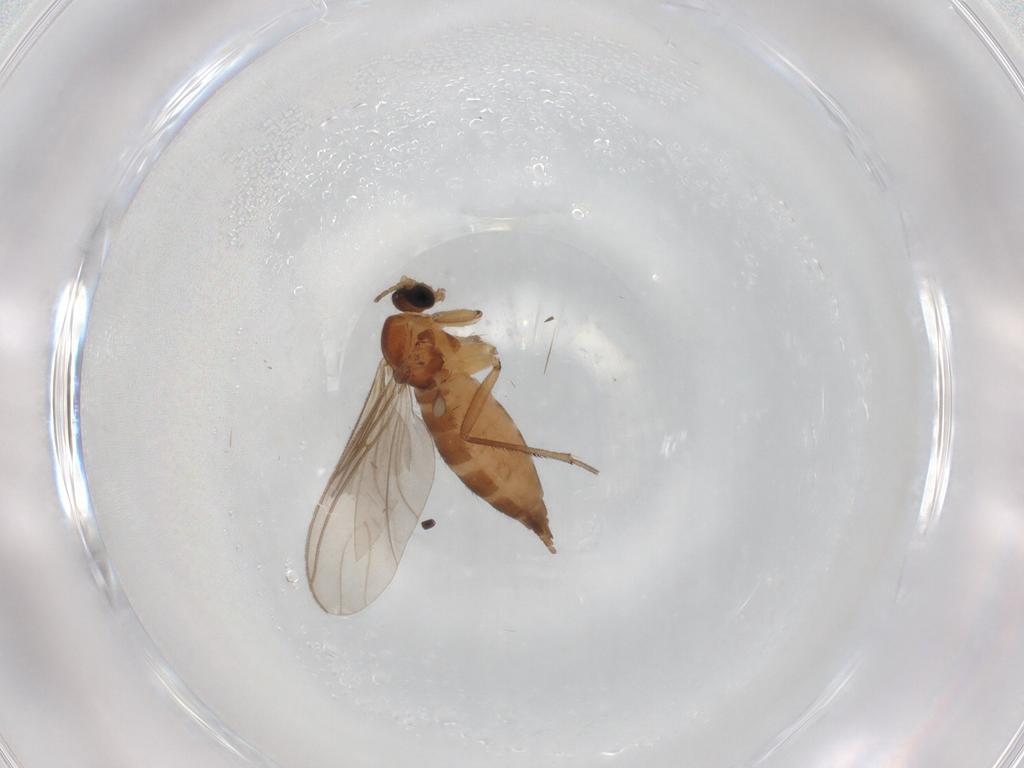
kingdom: Animalia
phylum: Arthropoda
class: Insecta
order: Diptera
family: Sciaridae
